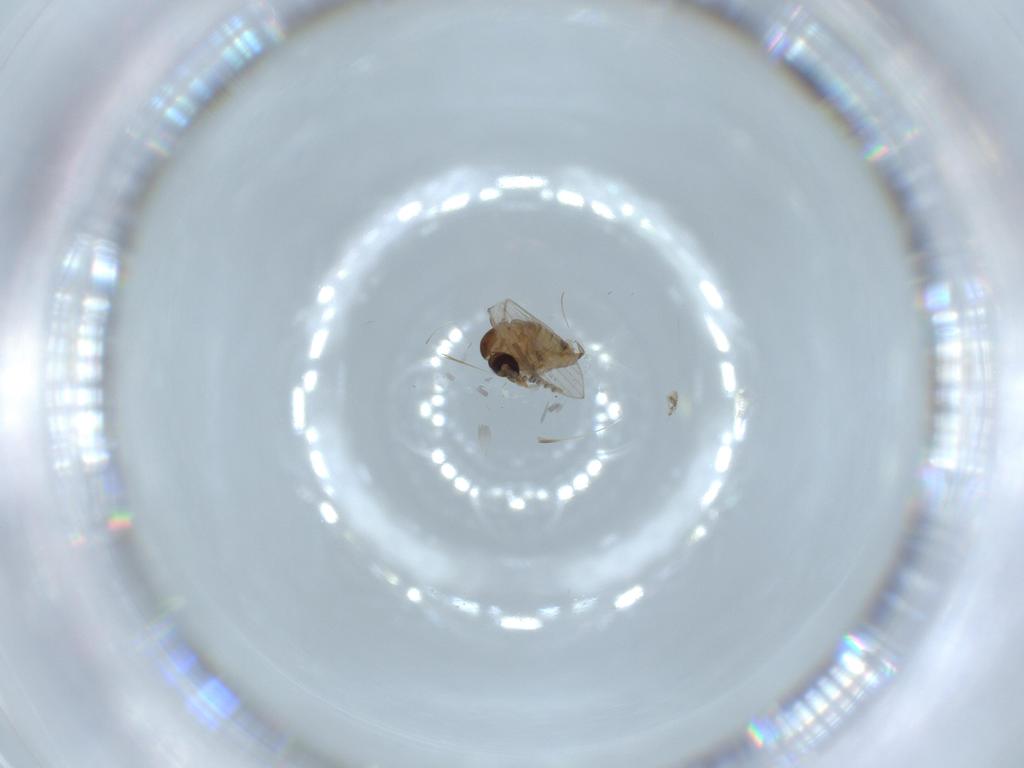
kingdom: Animalia
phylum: Arthropoda
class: Insecta
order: Diptera
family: Psychodidae
